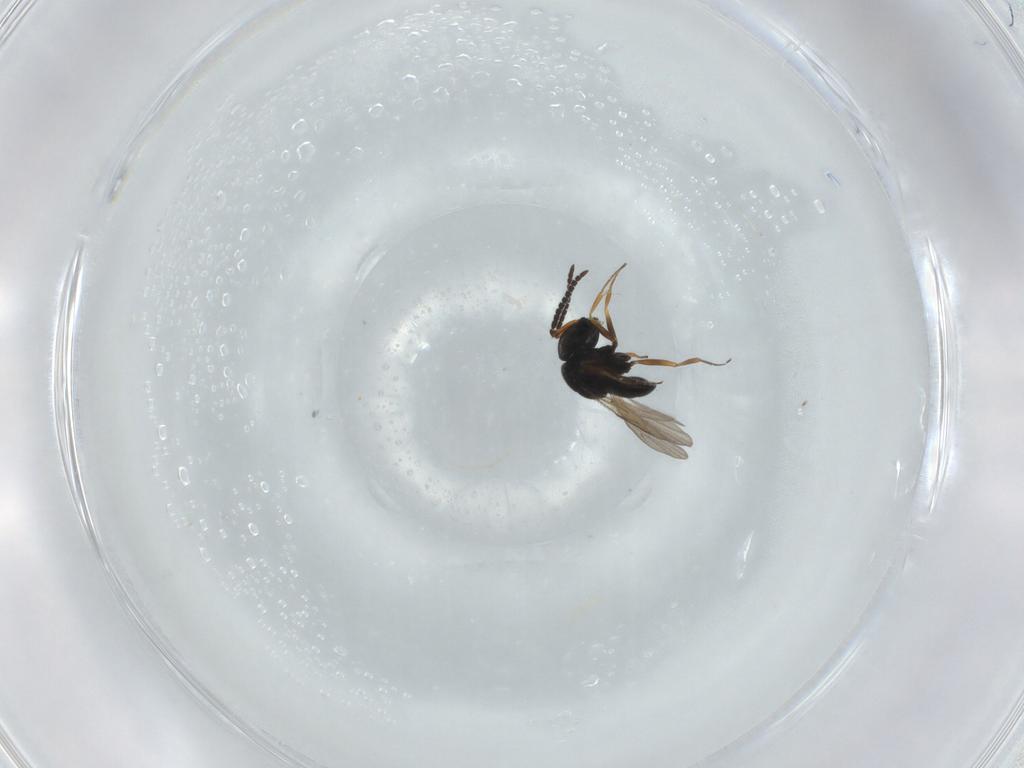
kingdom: Animalia
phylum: Arthropoda
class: Insecta
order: Hymenoptera
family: Scelionidae
